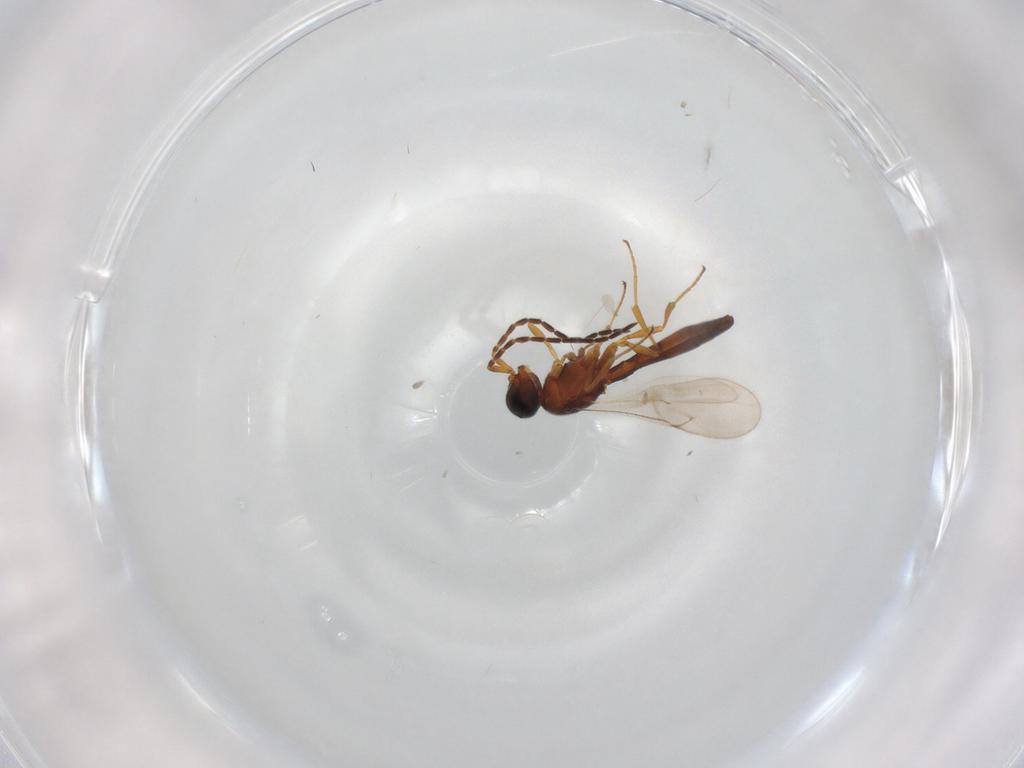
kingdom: Animalia
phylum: Arthropoda
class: Insecta
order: Hymenoptera
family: Scelionidae
